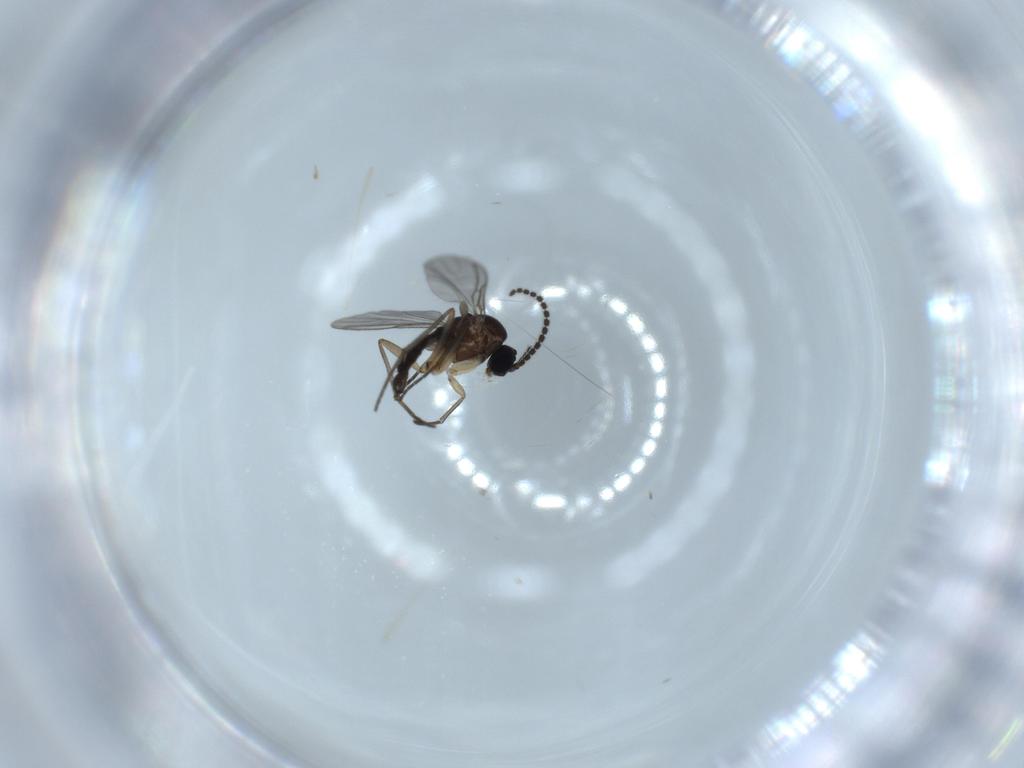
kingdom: Animalia
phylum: Arthropoda
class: Insecta
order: Diptera
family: Sciaridae
